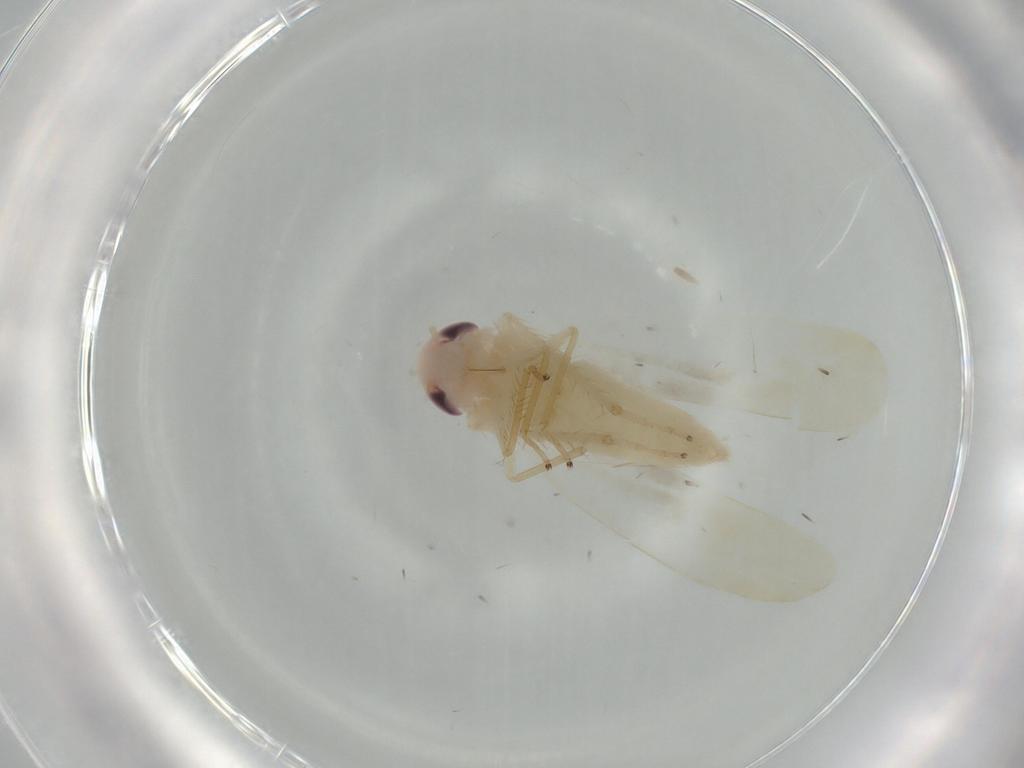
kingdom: Animalia
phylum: Arthropoda
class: Insecta
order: Hemiptera
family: Cicadellidae
